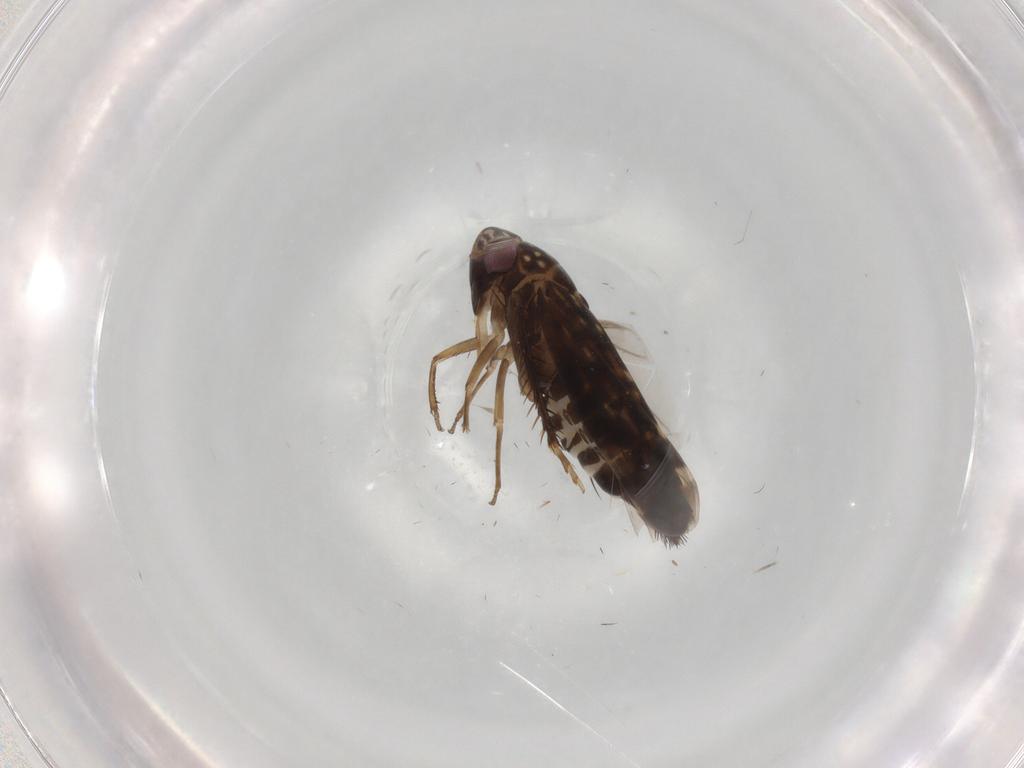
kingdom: Animalia
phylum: Arthropoda
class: Insecta
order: Hemiptera
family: Cicadellidae
